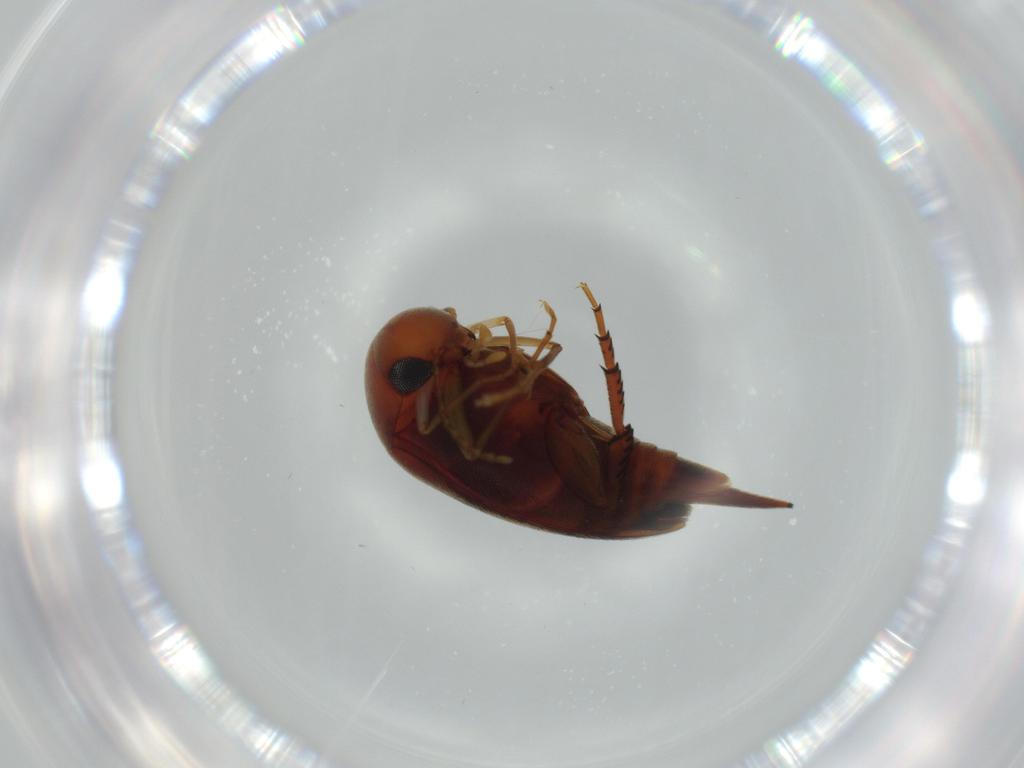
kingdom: Animalia
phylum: Arthropoda
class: Insecta
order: Coleoptera
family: Mordellidae
